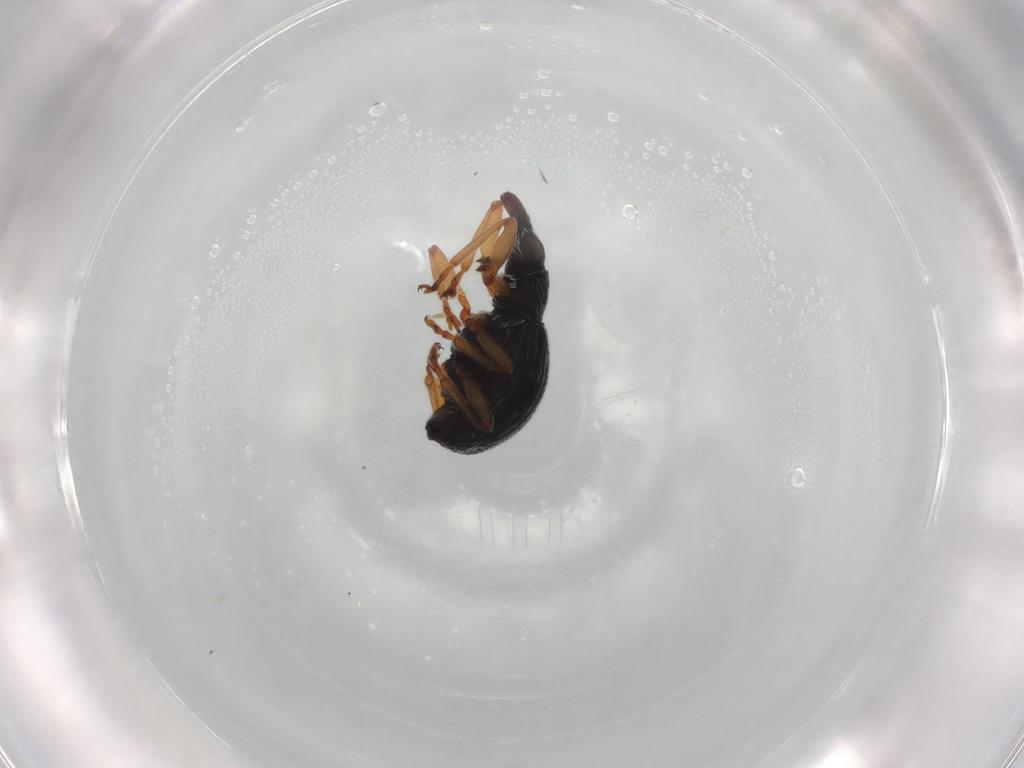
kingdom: Animalia
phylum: Arthropoda
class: Insecta
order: Coleoptera
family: Brentidae
